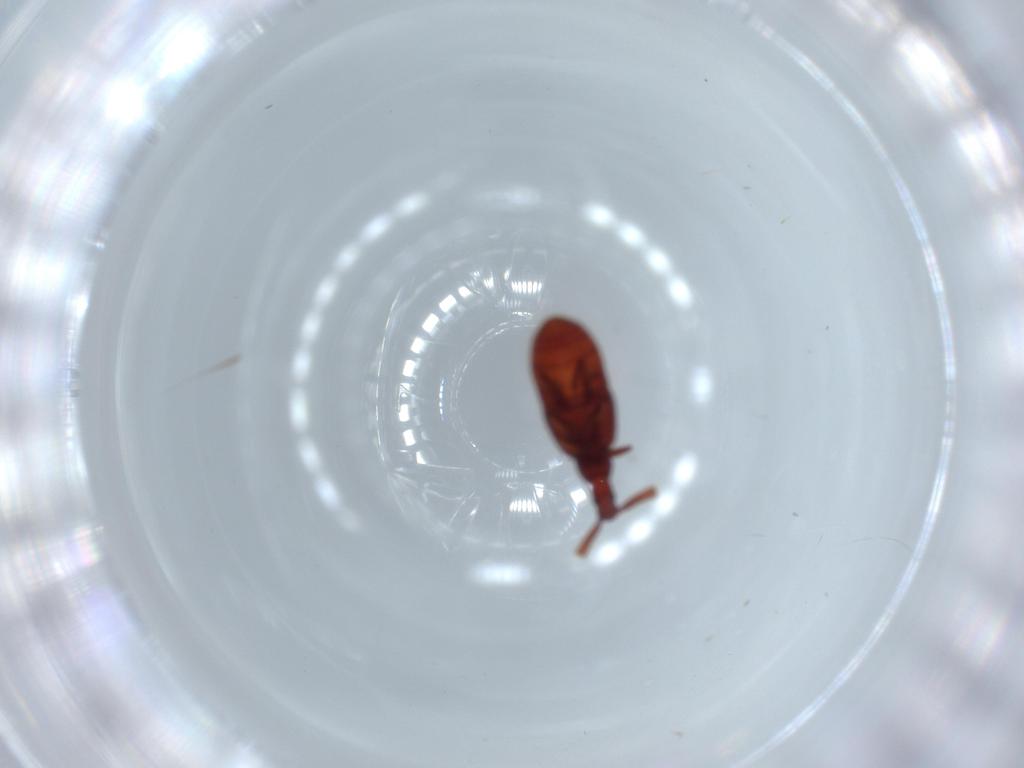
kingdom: Animalia
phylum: Arthropoda
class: Insecta
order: Coleoptera
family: Staphylinidae
